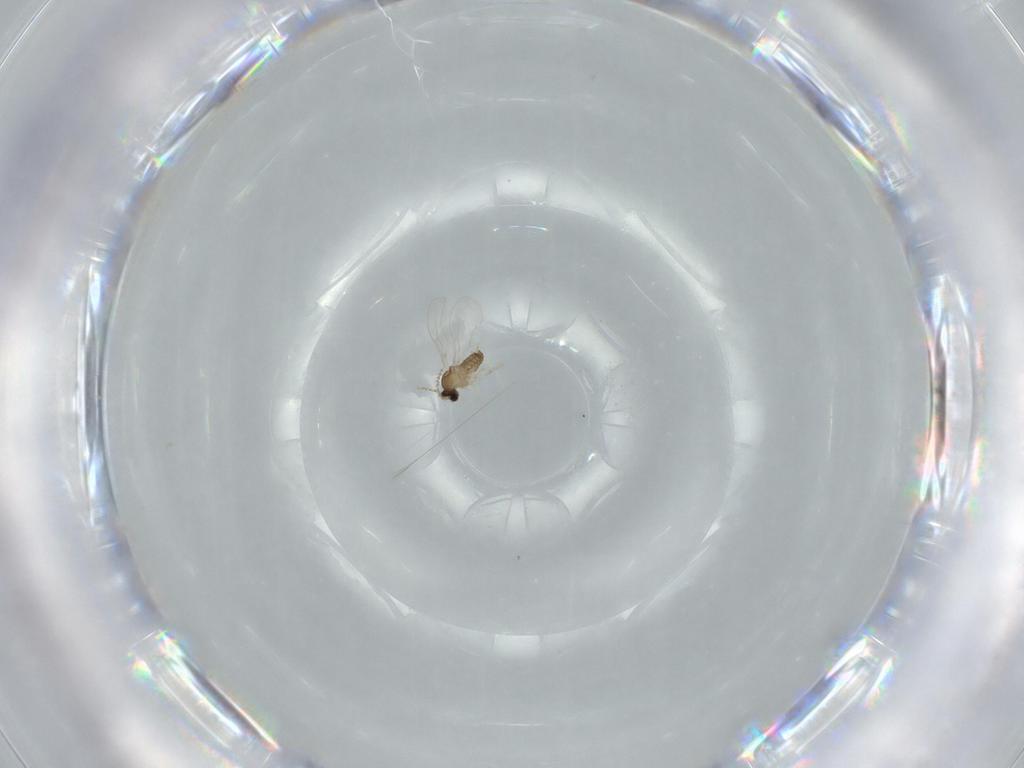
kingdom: Animalia
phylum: Arthropoda
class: Insecta
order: Diptera
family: Cecidomyiidae
